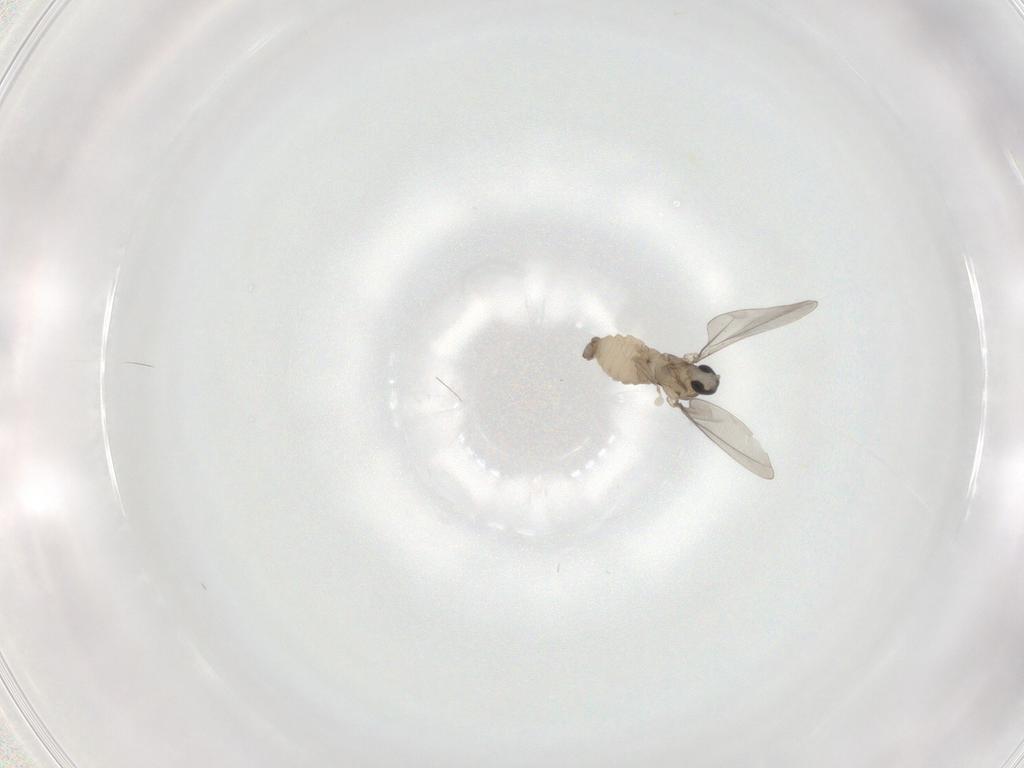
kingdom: Animalia
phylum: Arthropoda
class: Insecta
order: Diptera
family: Cecidomyiidae
